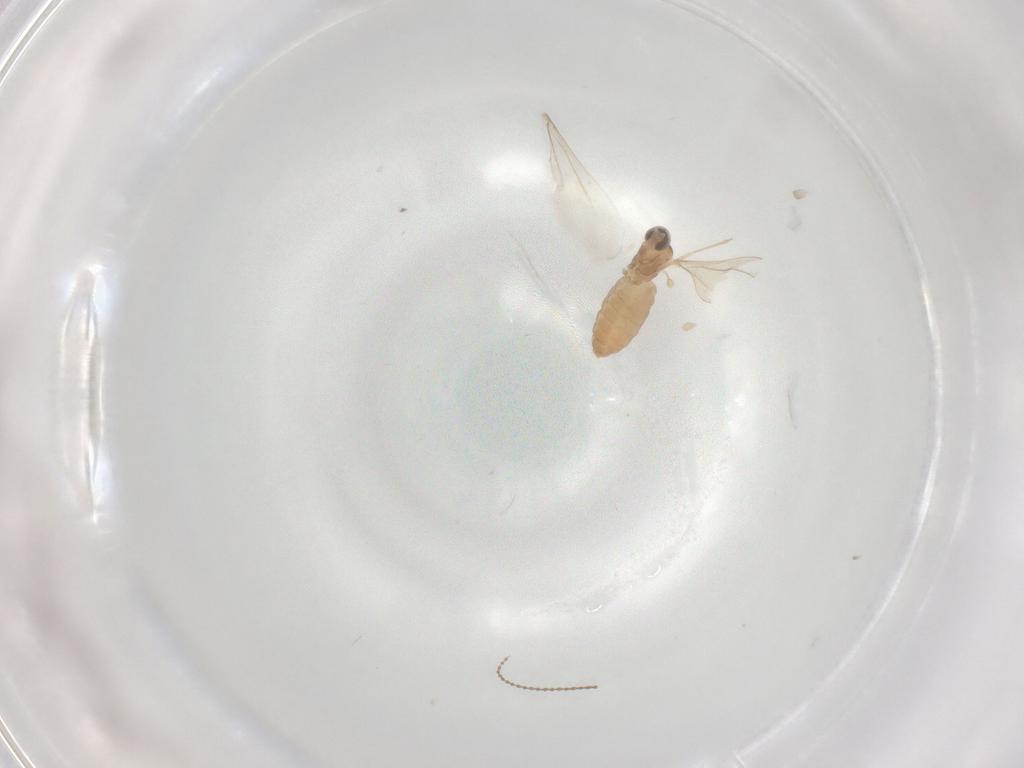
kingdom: Animalia
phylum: Arthropoda
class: Insecta
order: Diptera
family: Cecidomyiidae
